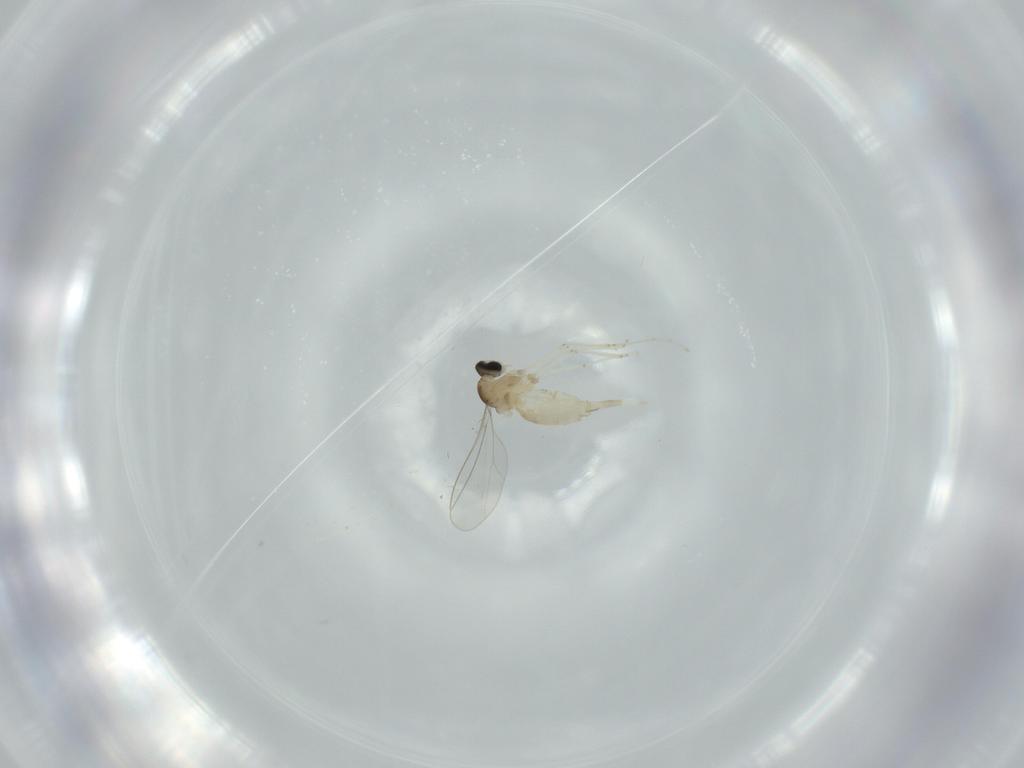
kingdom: Animalia
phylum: Arthropoda
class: Insecta
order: Diptera
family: Cecidomyiidae
